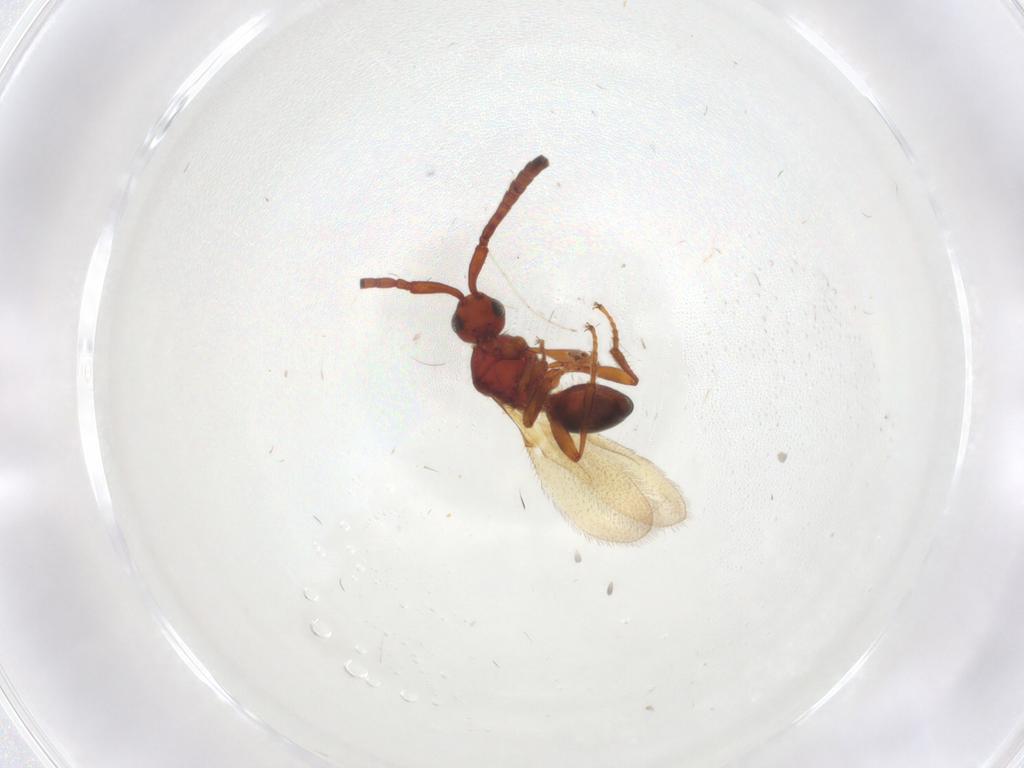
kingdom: Animalia
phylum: Arthropoda
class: Insecta
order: Hymenoptera
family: Diapriidae
